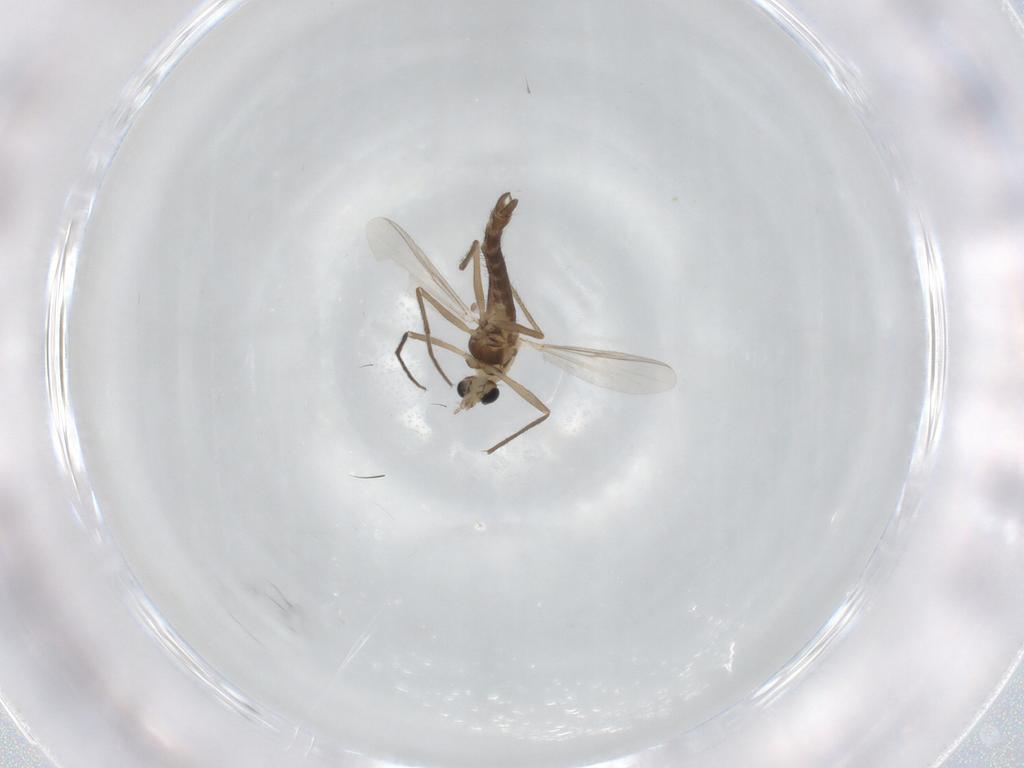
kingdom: Animalia
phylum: Arthropoda
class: Insecta
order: Diptera
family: Chironomidae
